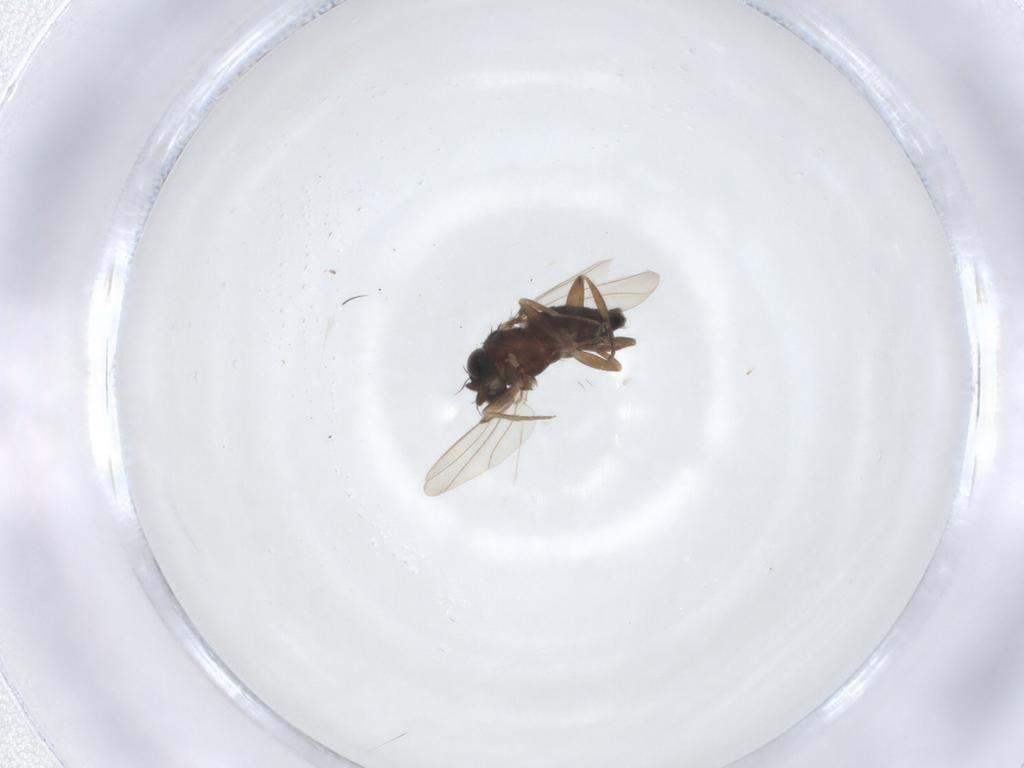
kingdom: Animalia
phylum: Arthropoda
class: Insecta
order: Diptera
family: Phoridae
